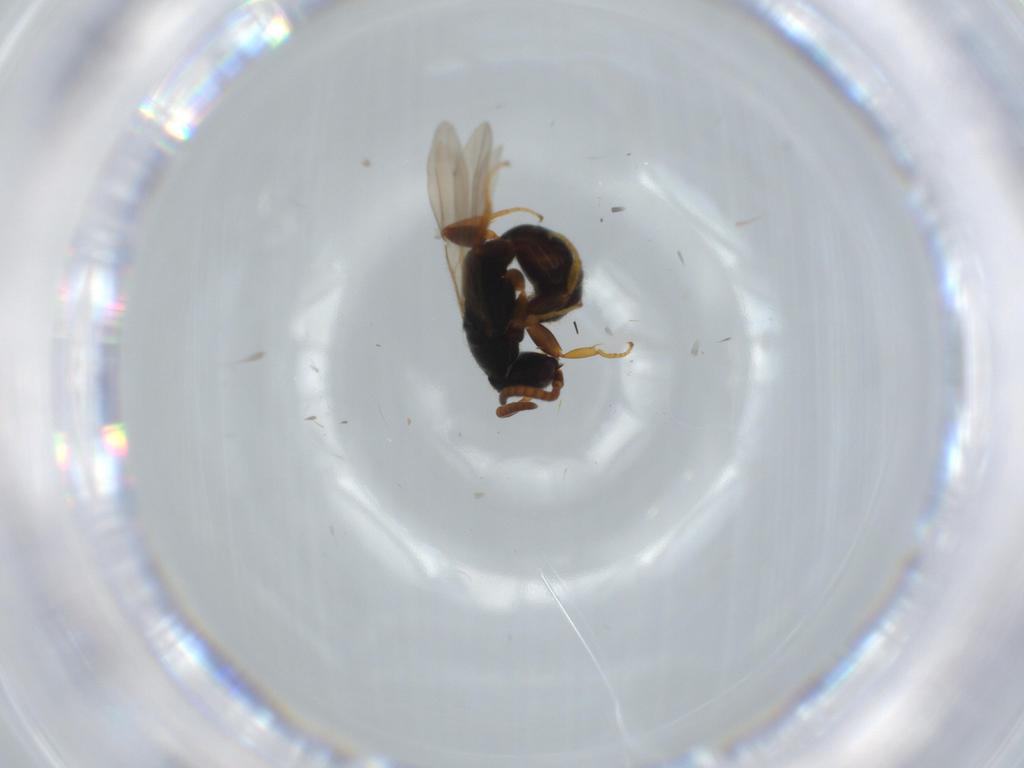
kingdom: Animalia
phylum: Arthropoda
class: Insecta
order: Hymenoptera
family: Bethylidae
